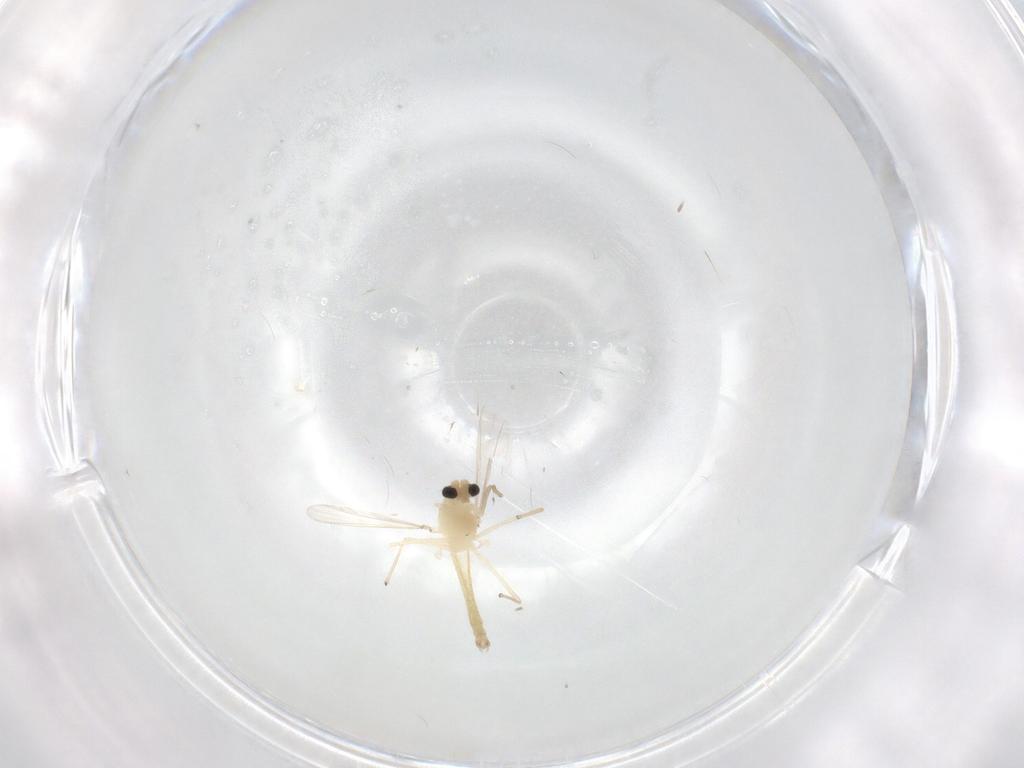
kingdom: Animalia
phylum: Arthropoda
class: Insecta
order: Diptera
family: Chironomidae
